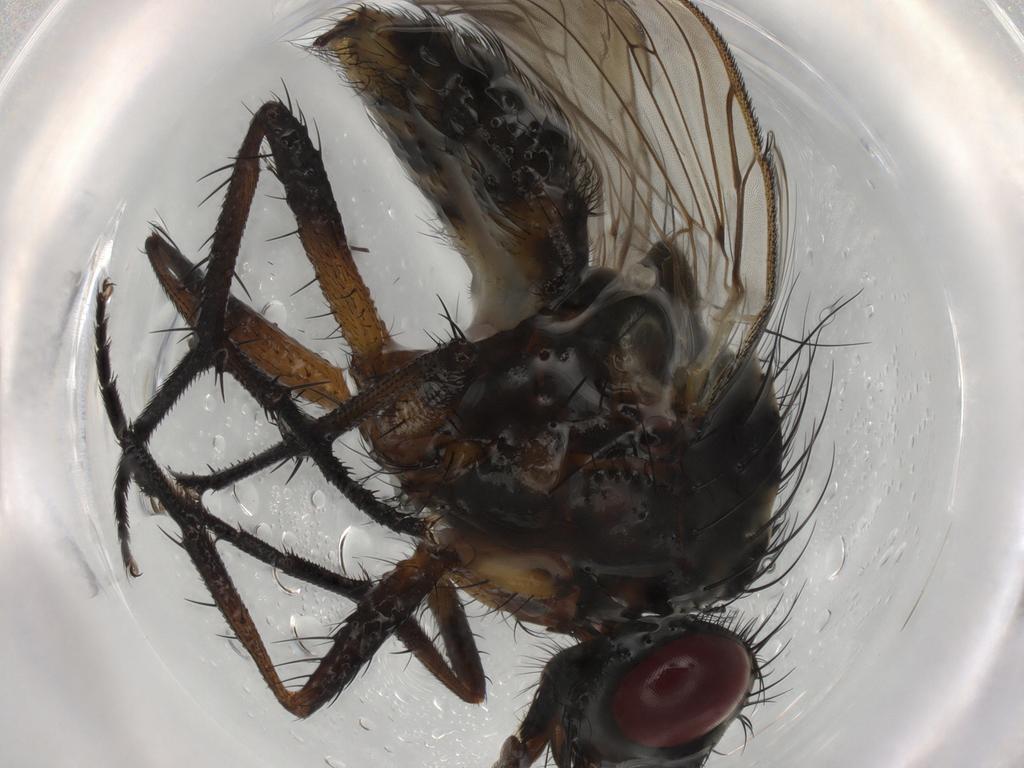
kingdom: Animalia
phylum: Arthropoda
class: Insecta
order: Diptera
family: Anthomyiidae
